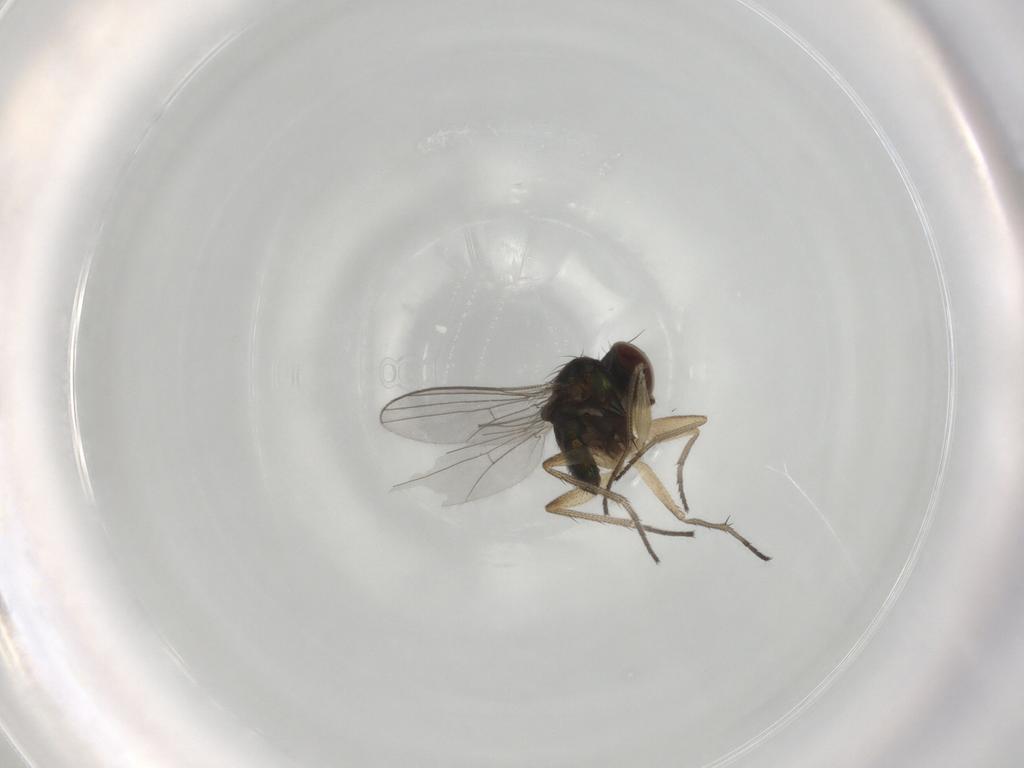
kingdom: Animalia
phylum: Arthropoda
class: Insecta
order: Diptera
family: Dolichopodidae
